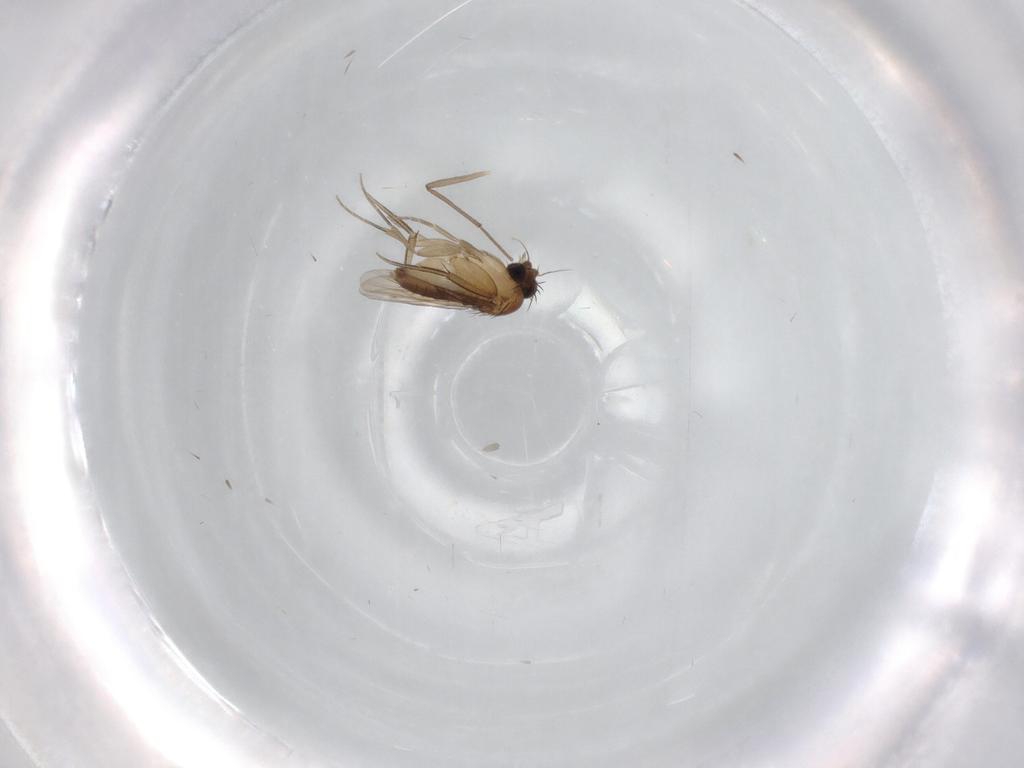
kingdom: Animalia
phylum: Arthropoda
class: Insecta
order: Diptera
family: Phoridae
